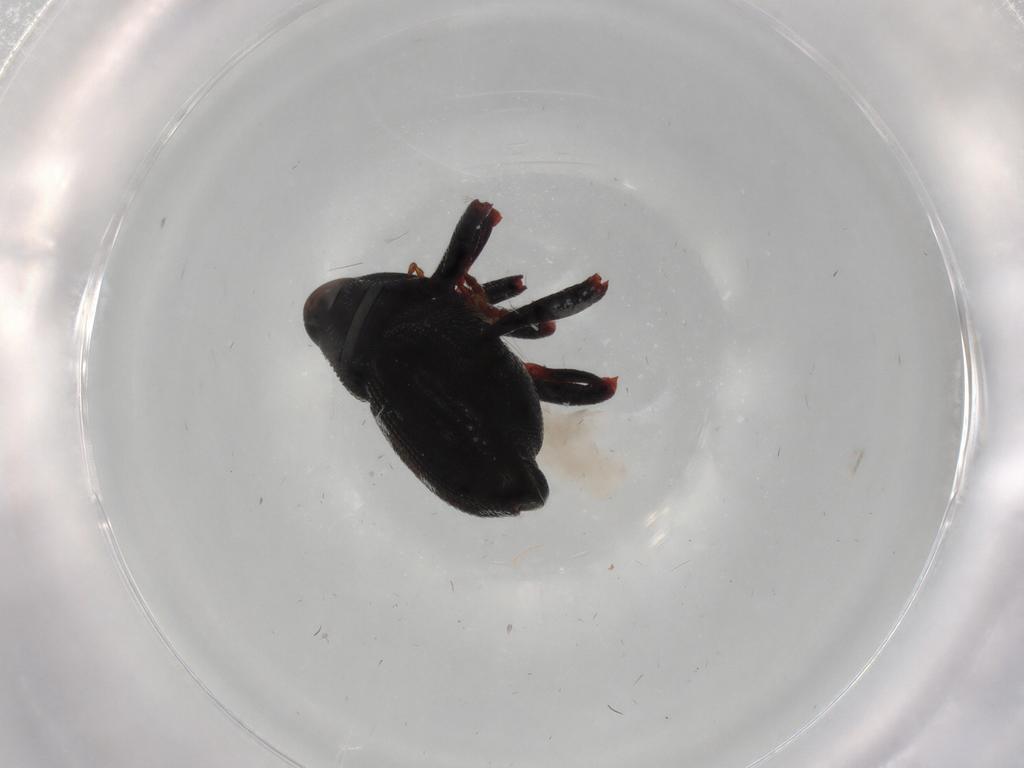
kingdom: Animalia
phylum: Arthropoda
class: Insecta
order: Coleoptera
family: Curculionidae
